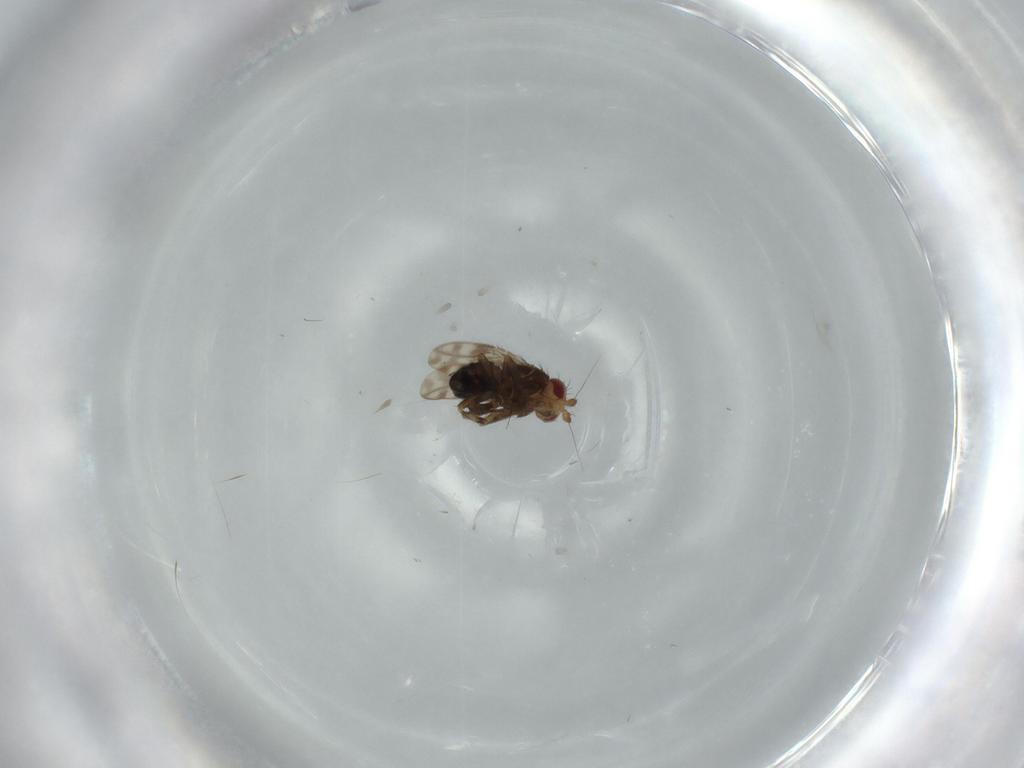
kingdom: Animalia
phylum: Arthropoda
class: Insecta
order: Diptera
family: Sphaeroceridae
